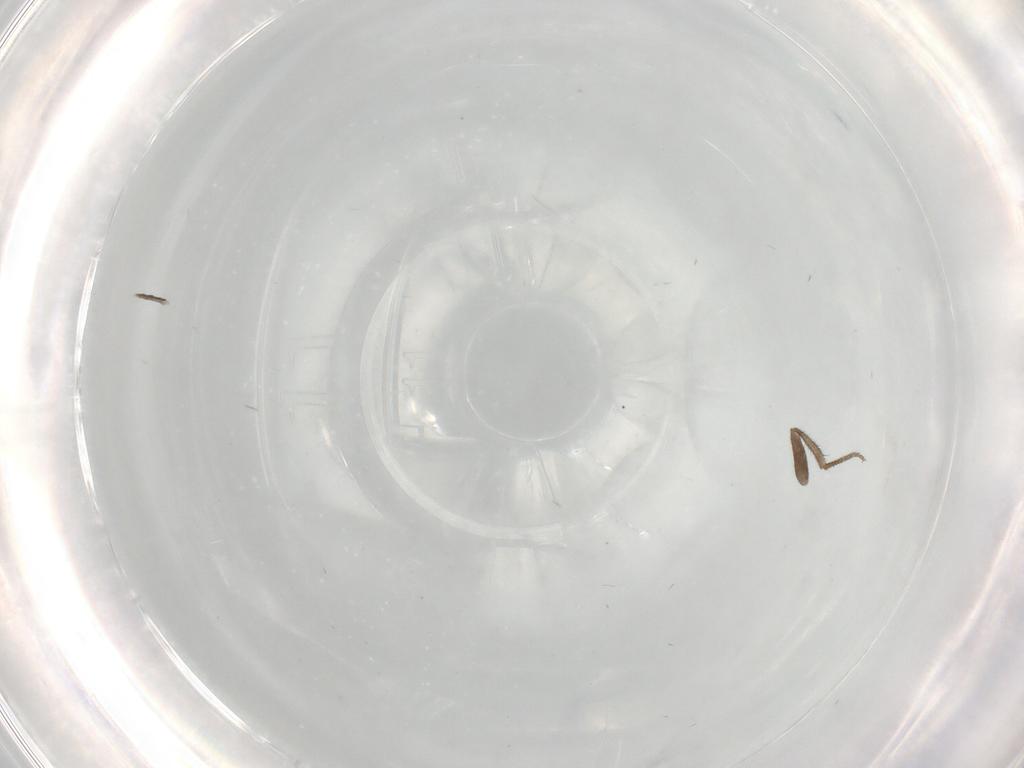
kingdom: Animalia
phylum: Arthropoda
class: Insecta
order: Diptera
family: Drosophilidae
